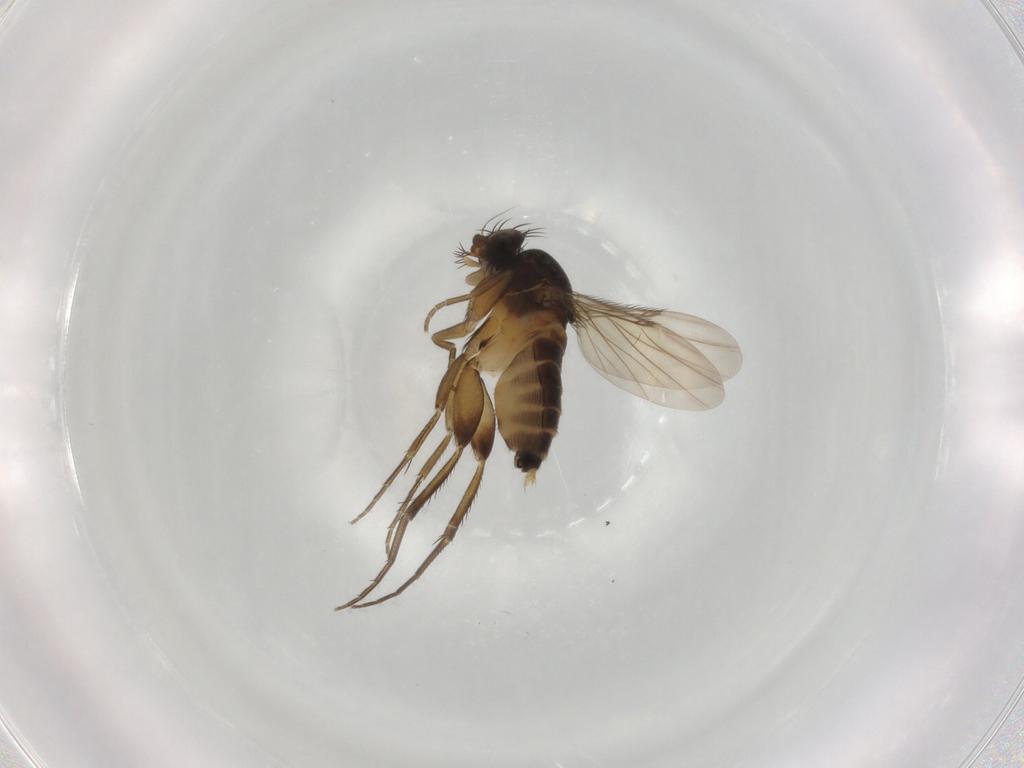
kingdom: Animalia
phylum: Arthropoda
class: Insecta
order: Diptera
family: Phoridae
